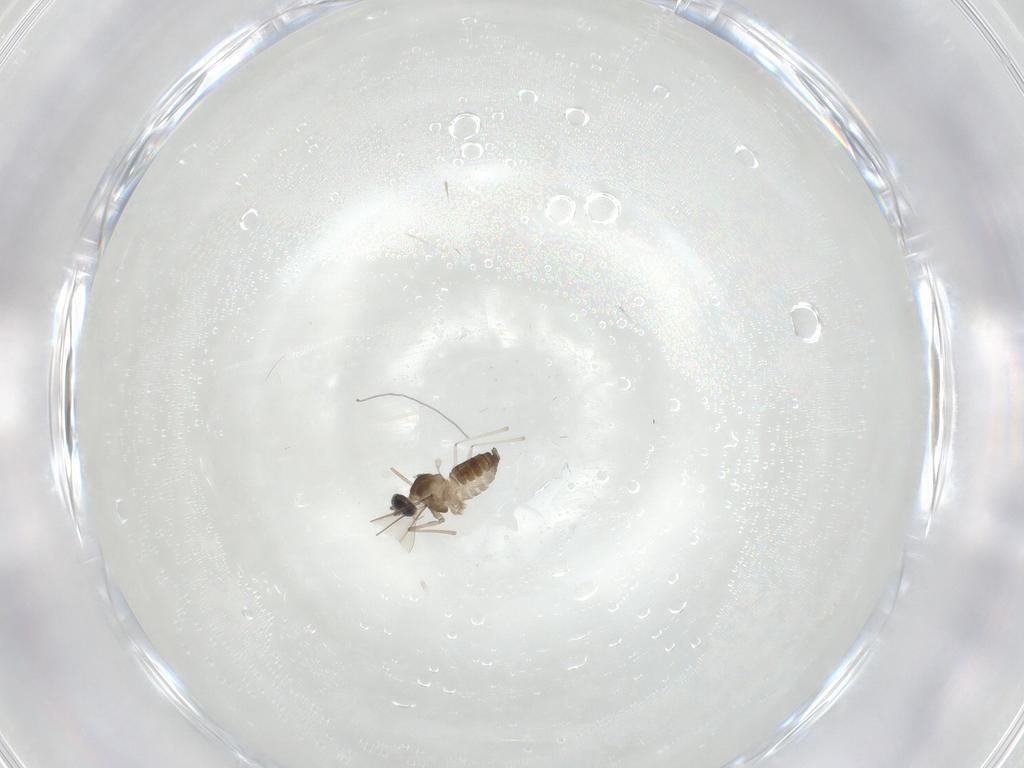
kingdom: Animalia
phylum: Arthropoda
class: Insecta
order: Diptera
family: Cecidomyiidae
